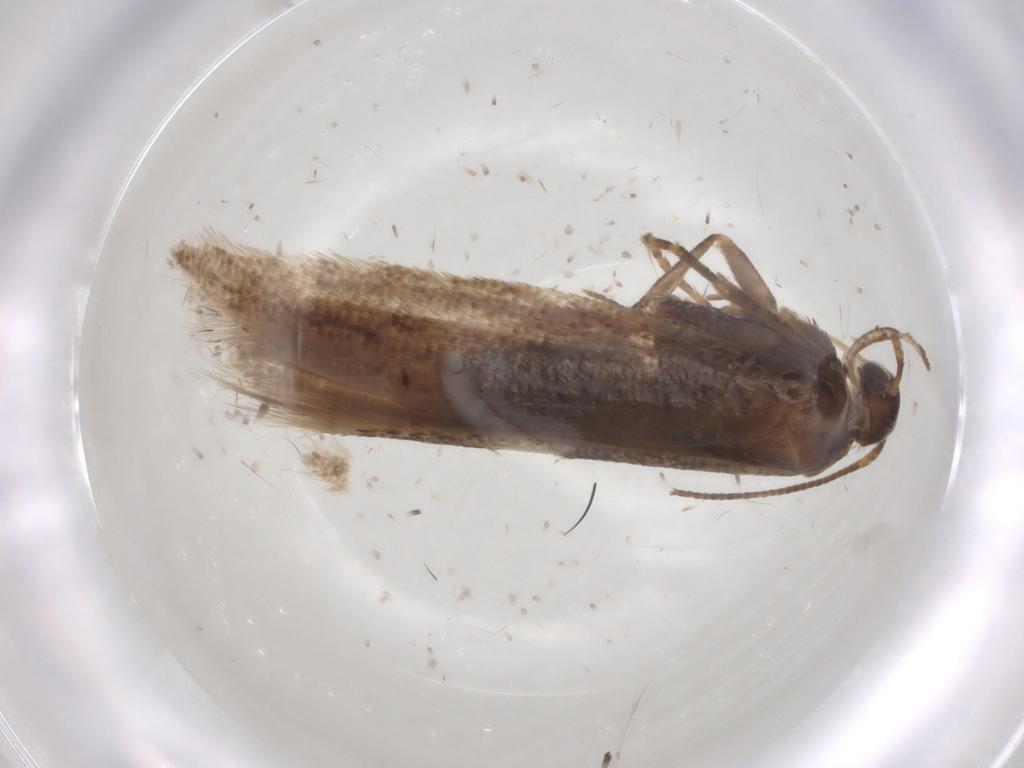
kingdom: Animalia
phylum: Arthropoda
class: Insecta
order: Lepidoptera
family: Gelechiidae
